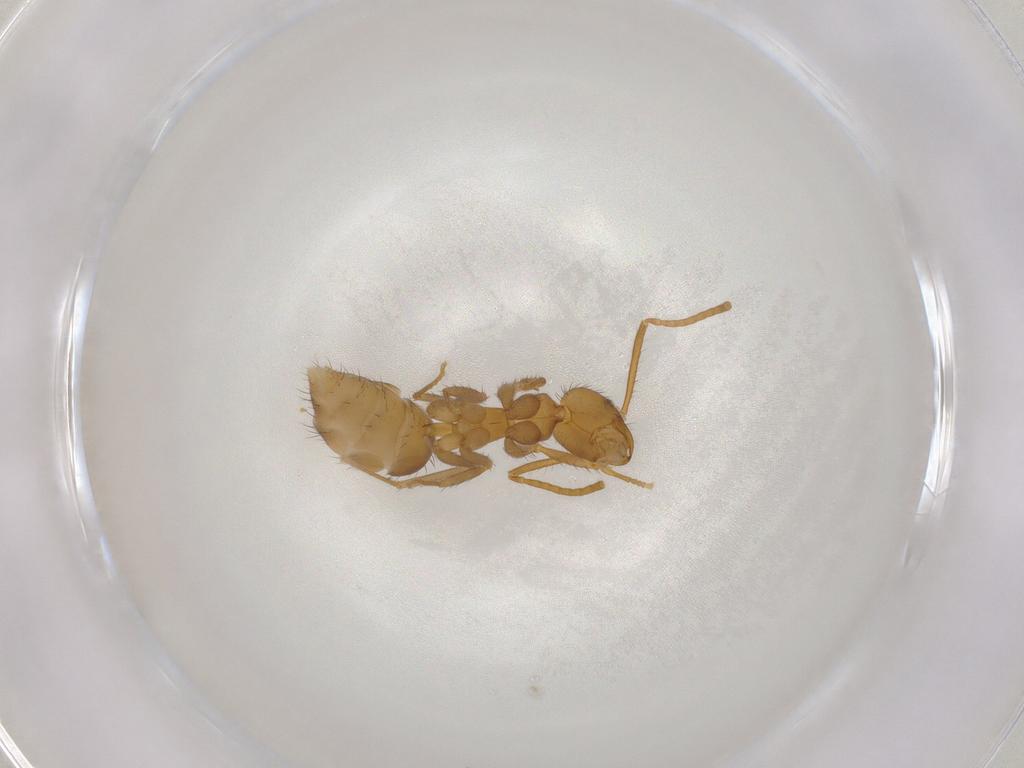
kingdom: Animalia
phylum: Arthropoda
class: Insecta
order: Hymenoptera
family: Formicidae
